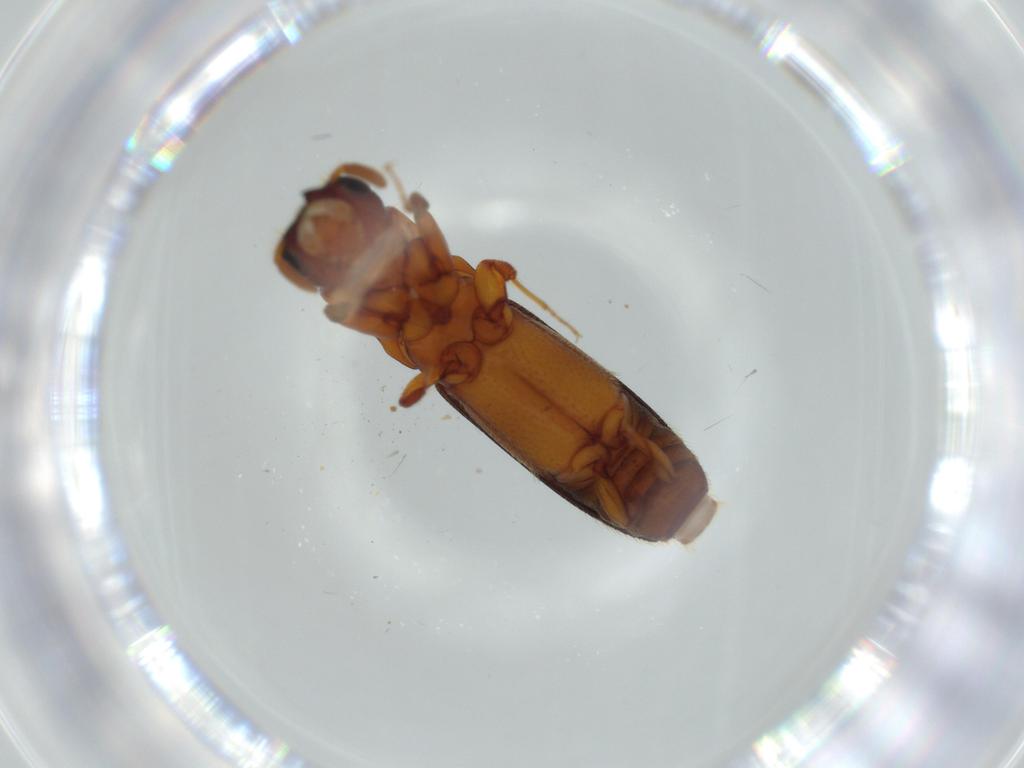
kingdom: Animalia
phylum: Arthropoda
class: Insecta
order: Coleoptera
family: Curculionidae
